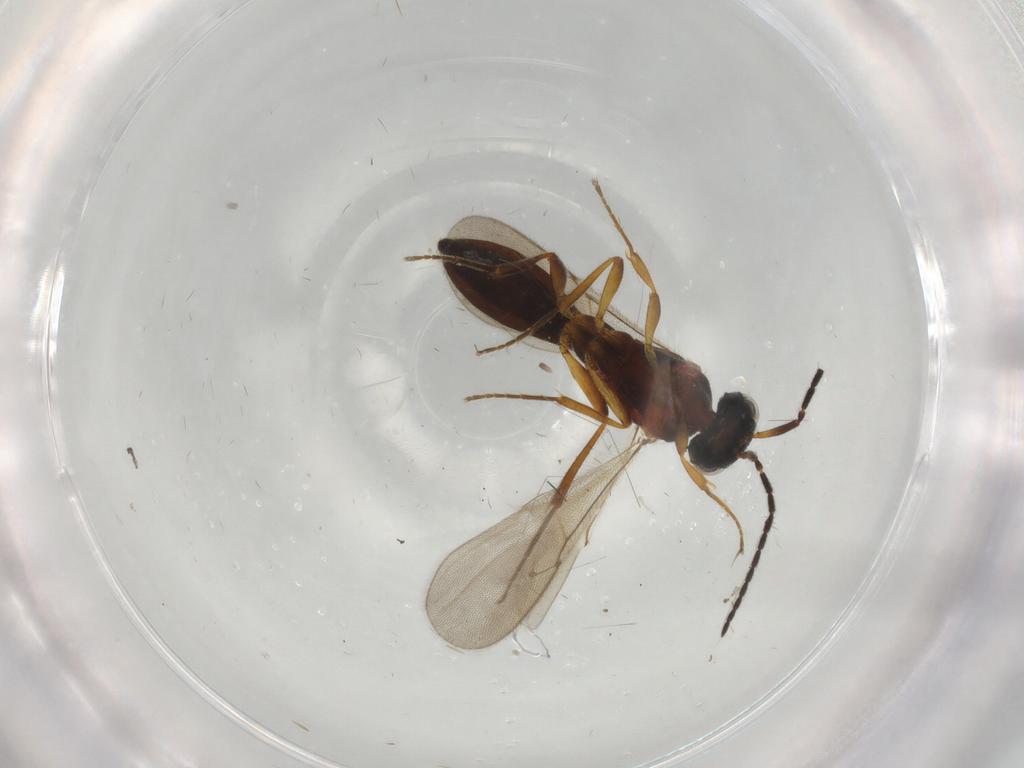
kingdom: Animalia
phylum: Arthropoda
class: Insecta
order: Hymenoptera
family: Scelionidae
